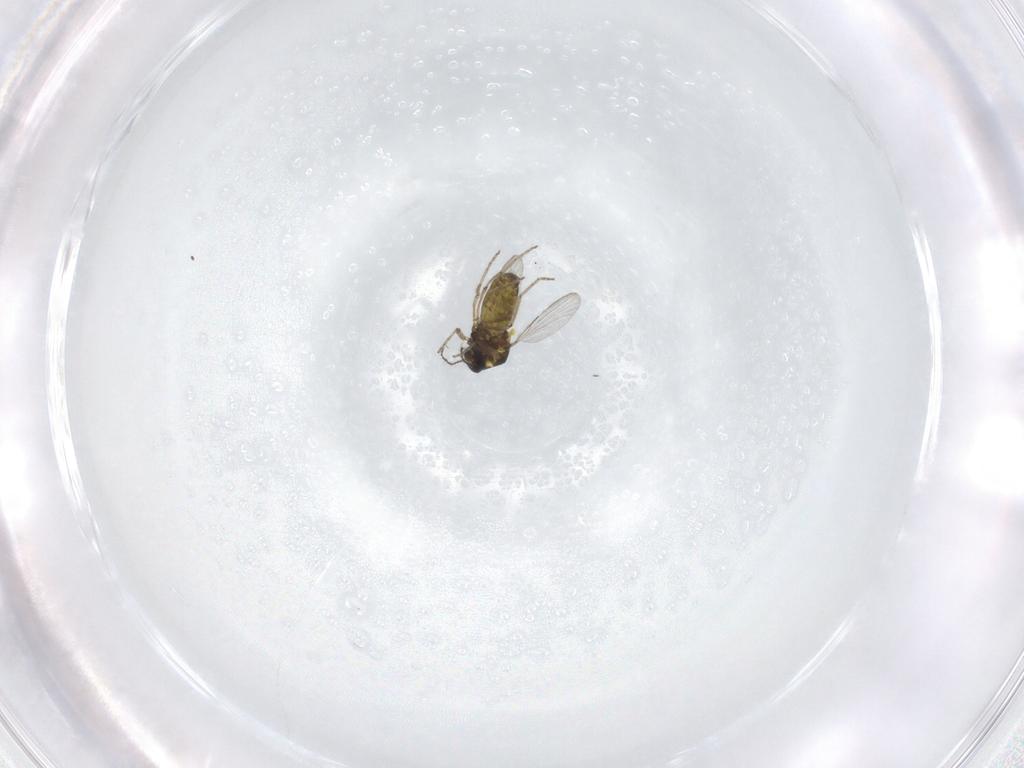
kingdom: Animalia
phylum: Arthropoda
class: Insecta
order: Diptera
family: Ceratopogonidae
